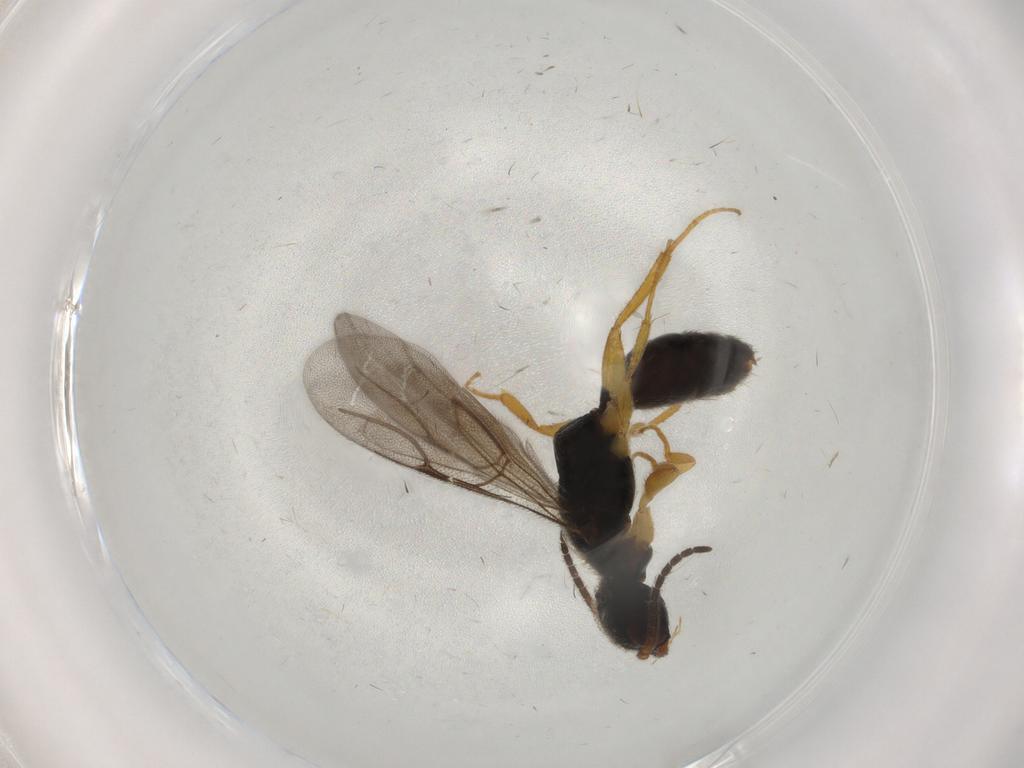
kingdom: Animalia
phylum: Arthropoda
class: Insecta
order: Hymenoptera
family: Bethylidae
